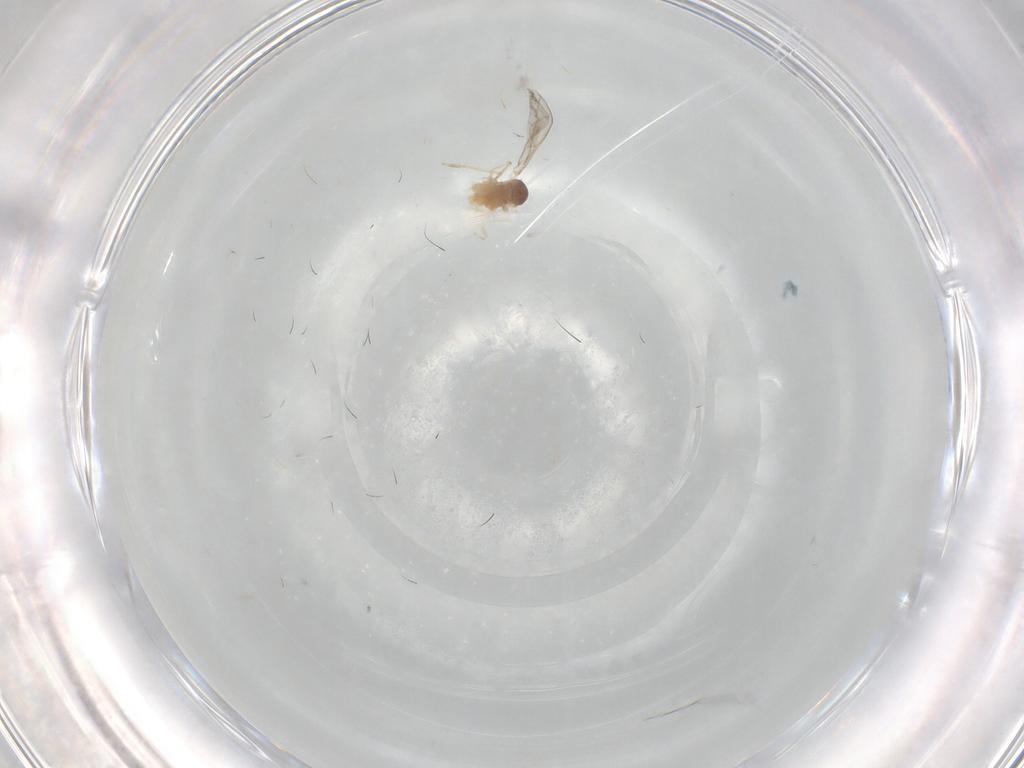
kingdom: Animalia
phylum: Arthropoda
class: Insecta
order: Diptera
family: Cecidomyiidae
